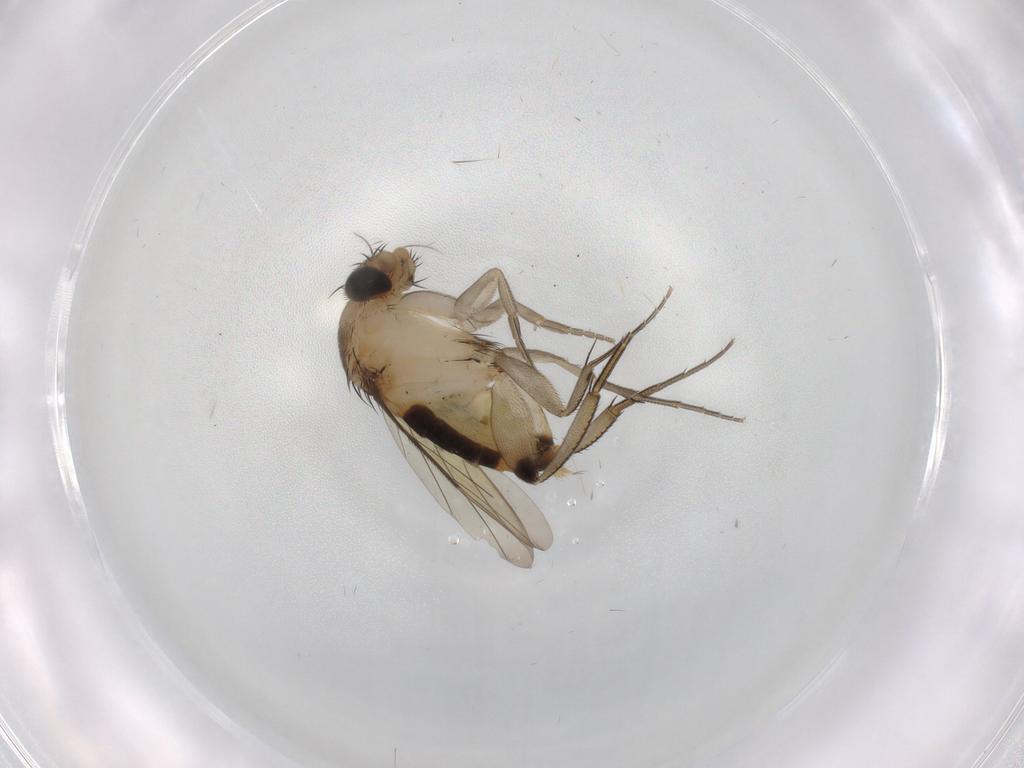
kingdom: Animalia
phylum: Arthropoda
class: Insecta
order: Diptera
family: Phoridae
